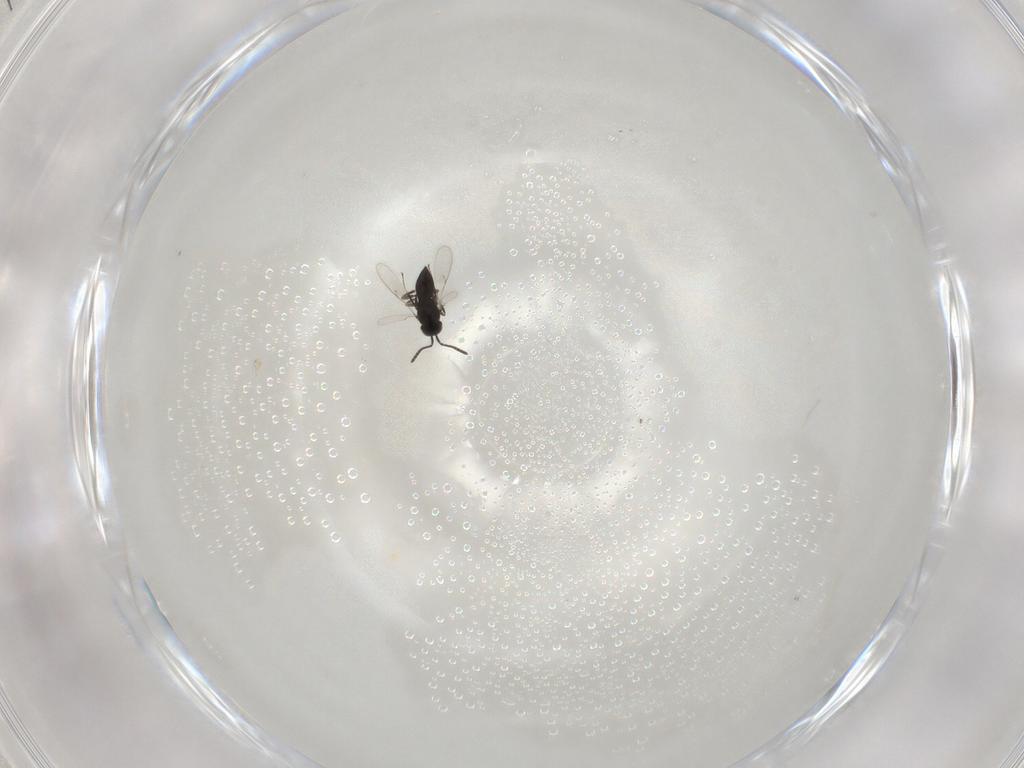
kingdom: Animalia
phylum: Arthropoda
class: Insecta
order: Hymenoptera
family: Scelionidae
